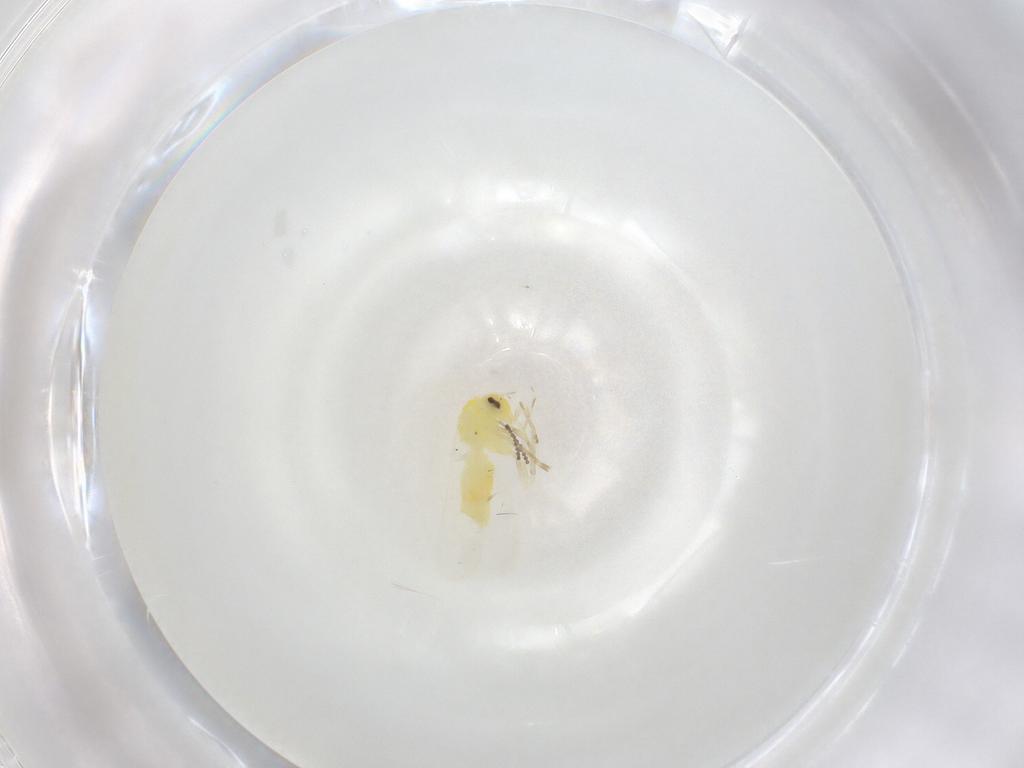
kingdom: Animalia
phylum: Arthropoda
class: Insecta
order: Hemiptera
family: Aleyrodidae
